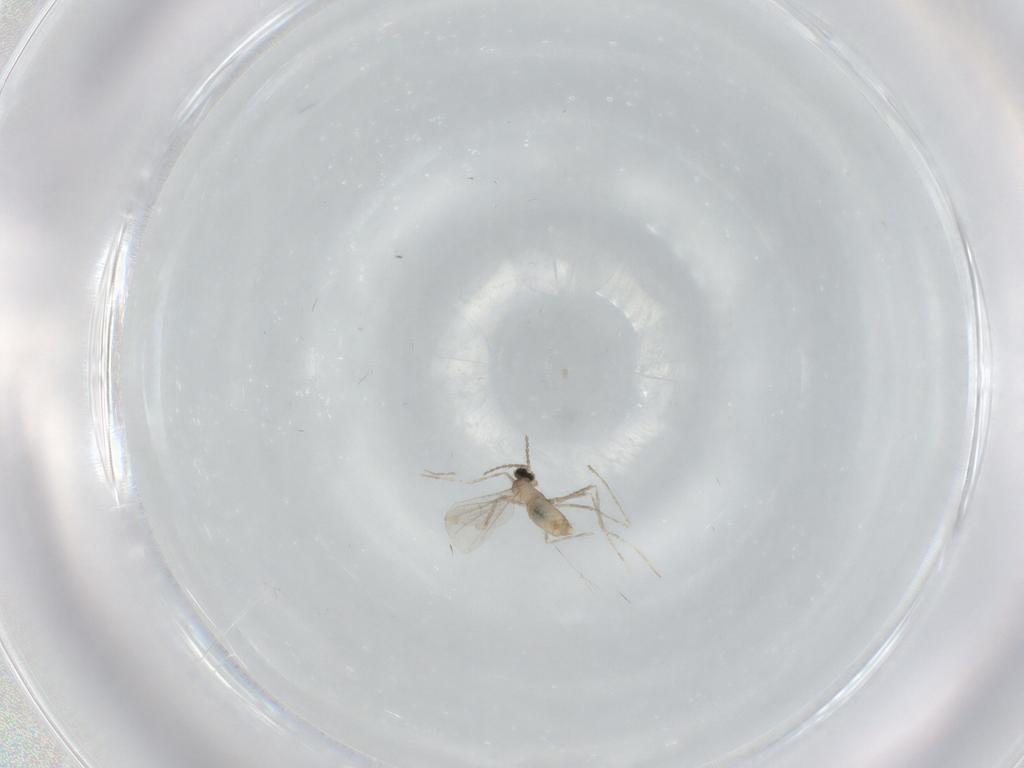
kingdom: Animalia
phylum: Arthropoda
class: Insecta
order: Diptera
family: Cecidomyiidae
